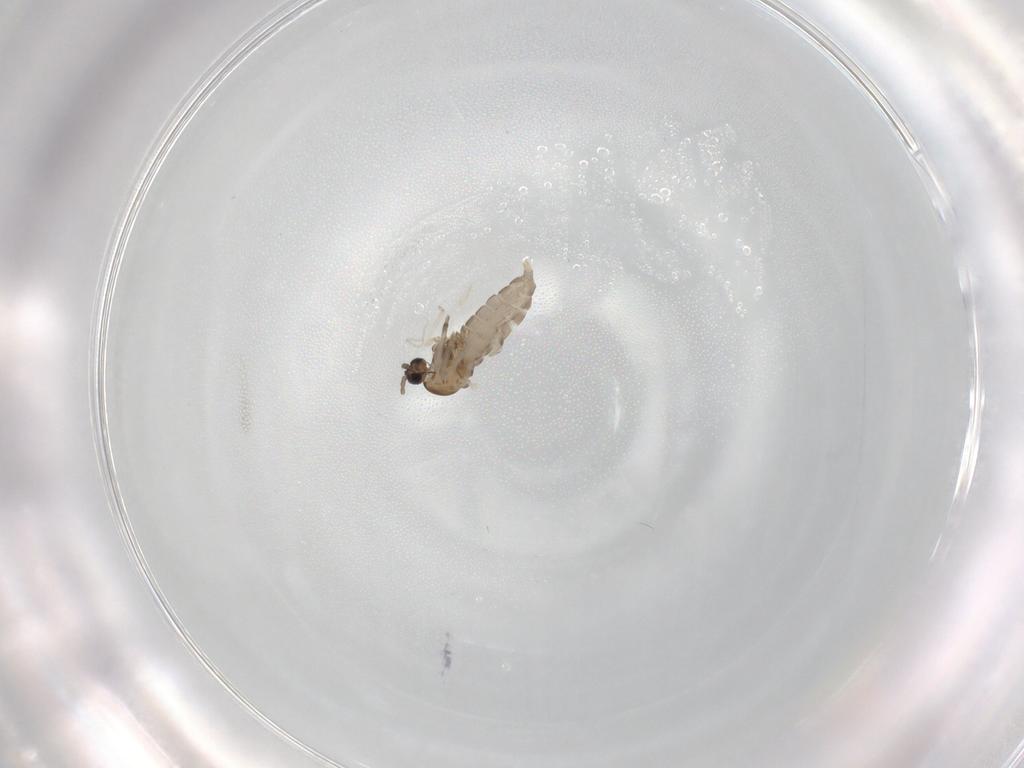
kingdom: Animalia
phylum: Arthropoda
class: Insecta
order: Diptera
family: Cecidomyiidae
